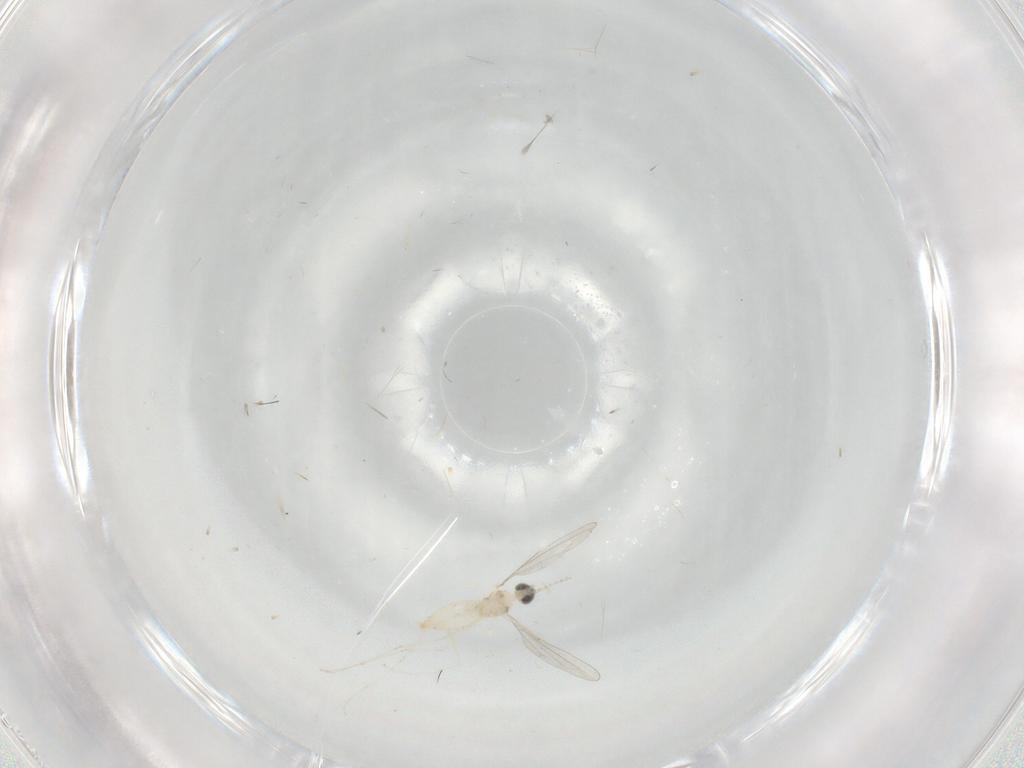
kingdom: Animalia
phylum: Arthropoda
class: Insecta
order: Diptera
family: Cecidomyiidae
